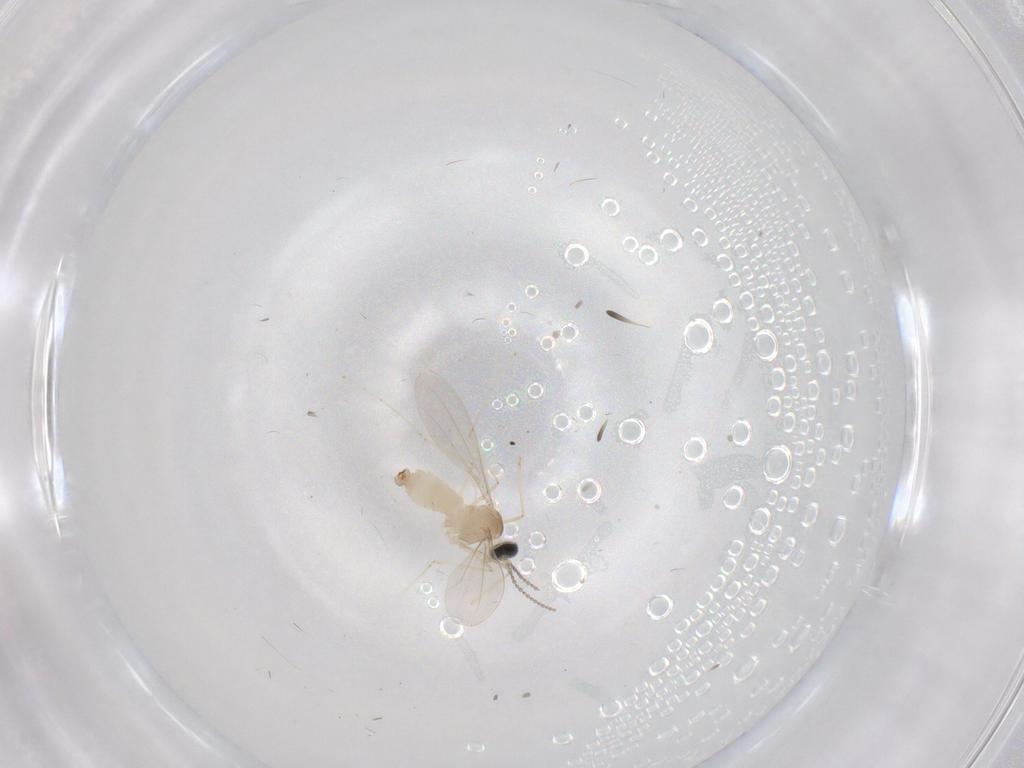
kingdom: Animalia
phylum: Arthropoda
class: Insecta
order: Diptera
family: Cecidomyiidae
